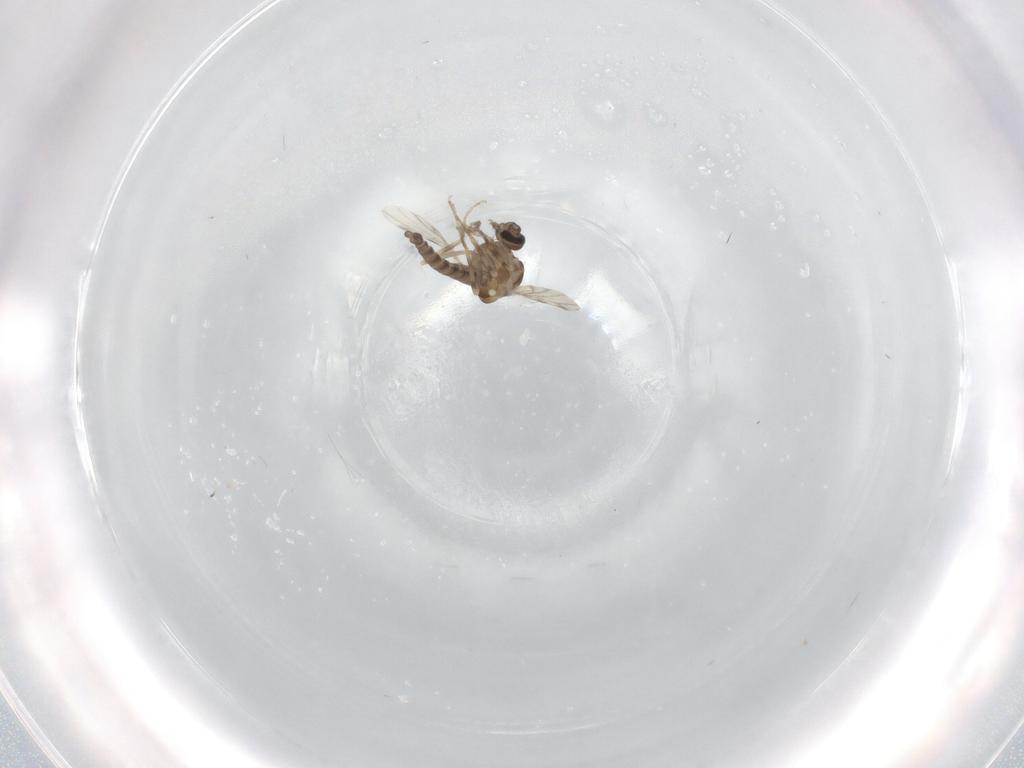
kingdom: Animalia
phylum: Arthropoda
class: Insecta
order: Diptera
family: Ceratopogonidae
